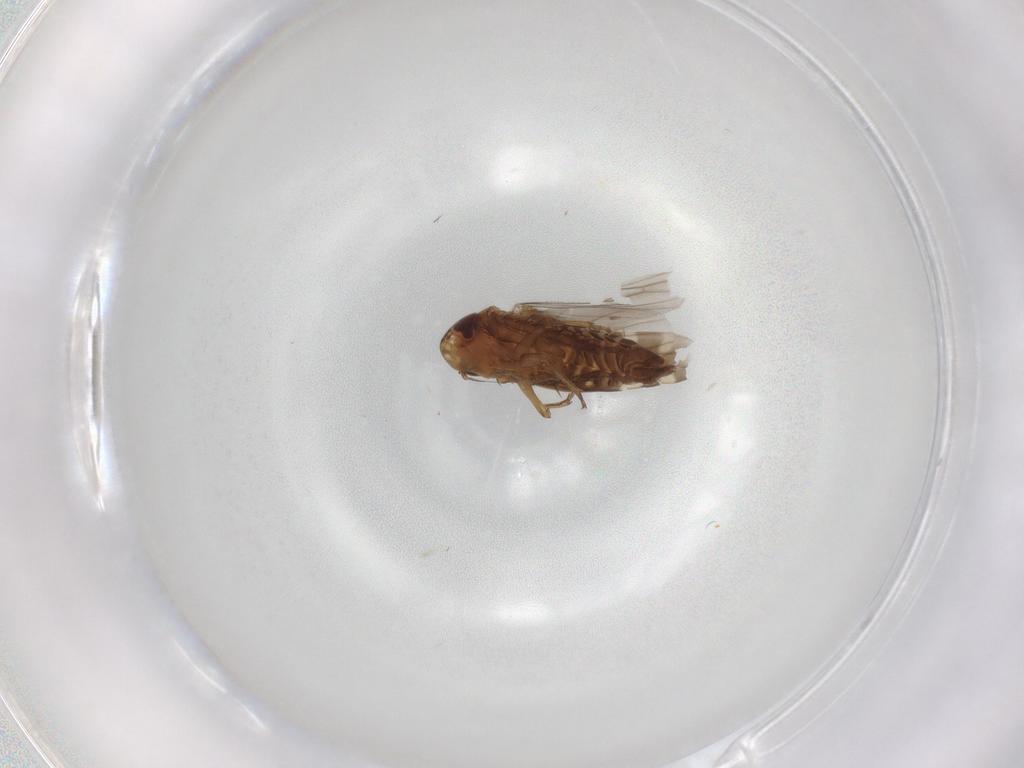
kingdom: Animalia
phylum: Arthropoda
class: Insecta
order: Hemiptera
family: Cicadellidae
